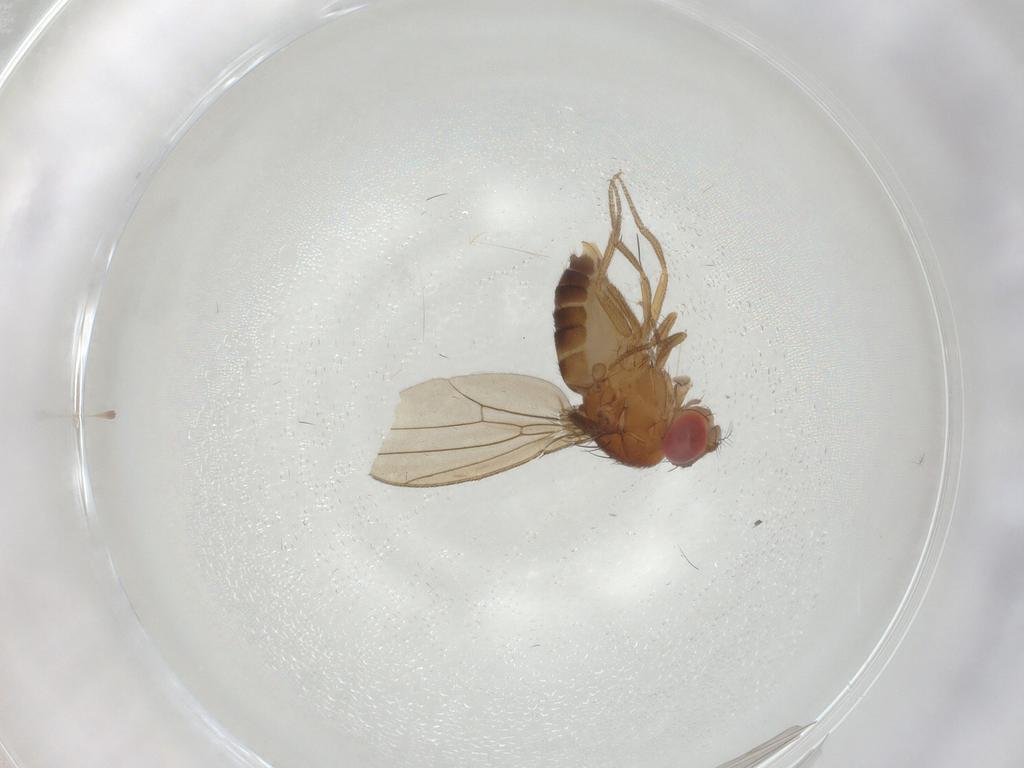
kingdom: Animalia
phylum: Arthropoda
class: Insecta
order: Diptera
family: Drosophilidae
